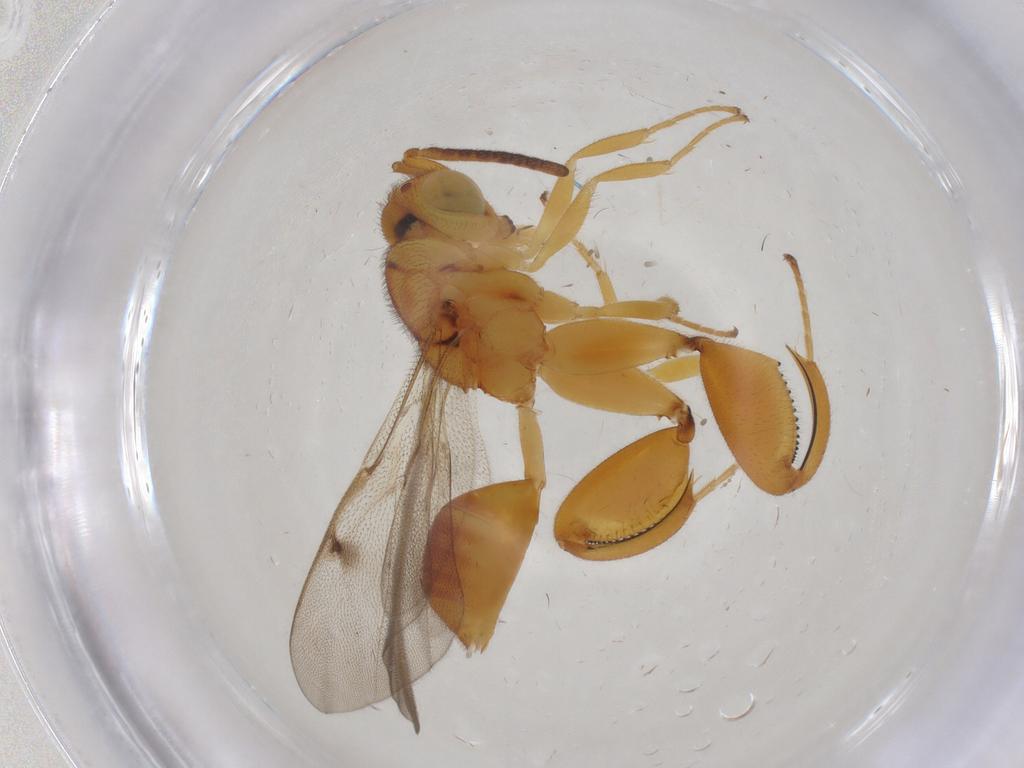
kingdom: Animalia
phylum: Arthropoda
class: Insecta
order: Hymenoptera
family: Chalcididae
